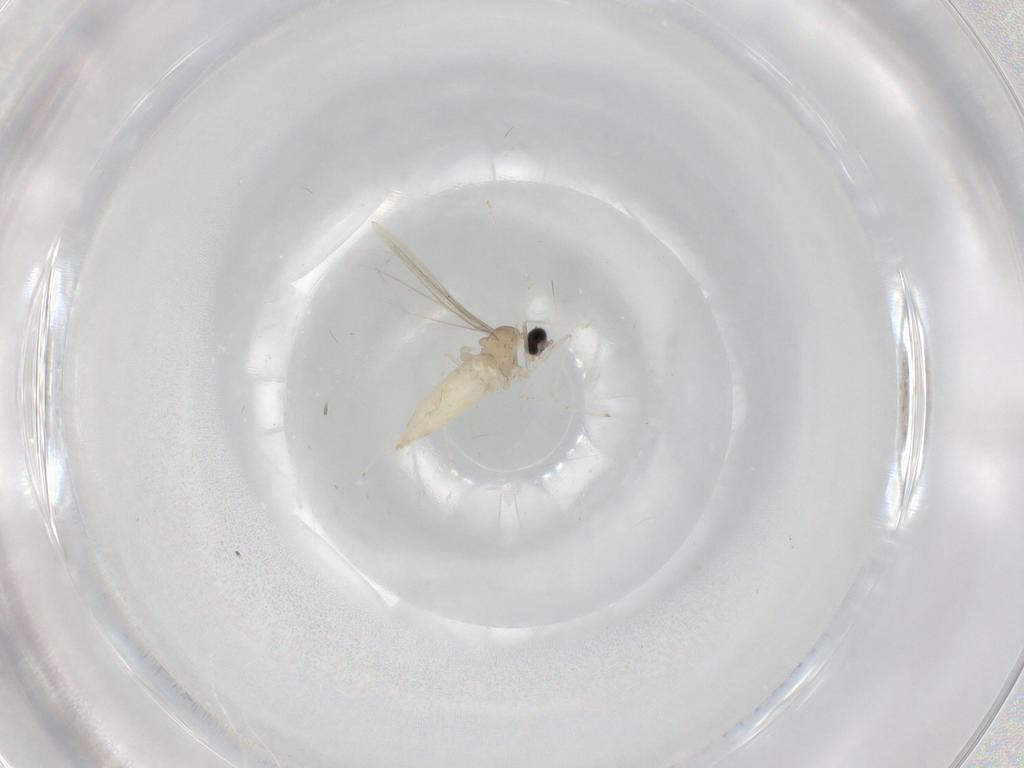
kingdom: Animalia
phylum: Arthropoda
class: Insecta
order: Diptera
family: Cecidomyiidae
